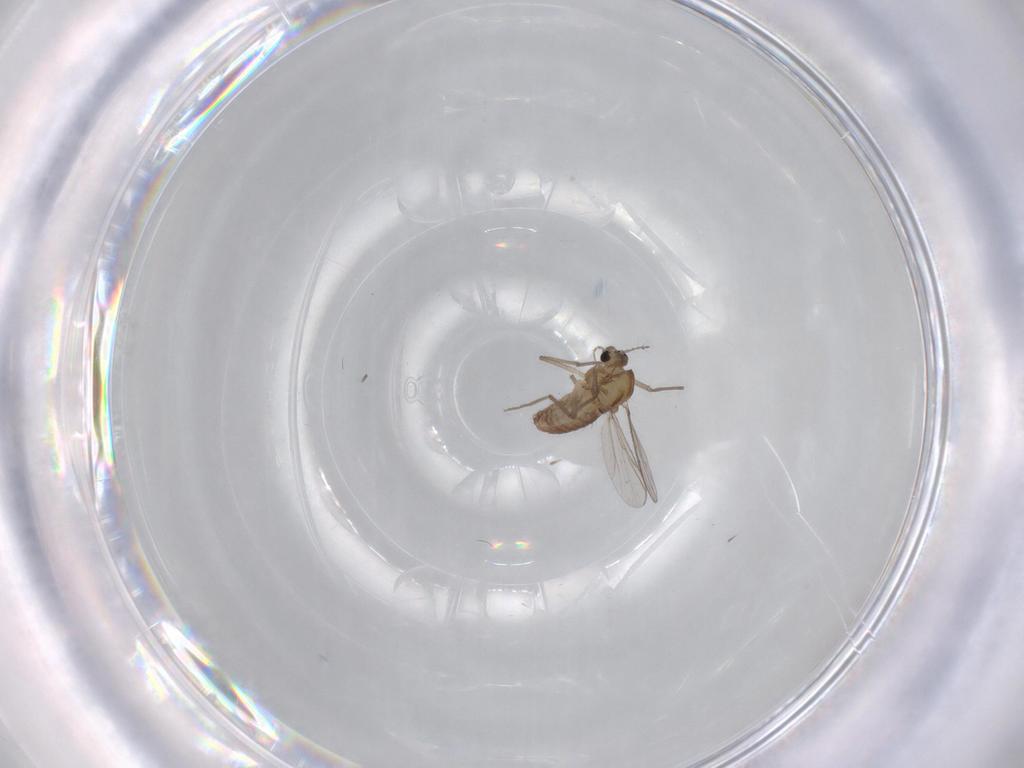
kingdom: Animalia
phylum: Arthropoda
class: Insecta
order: Diptera
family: Chironomidae
